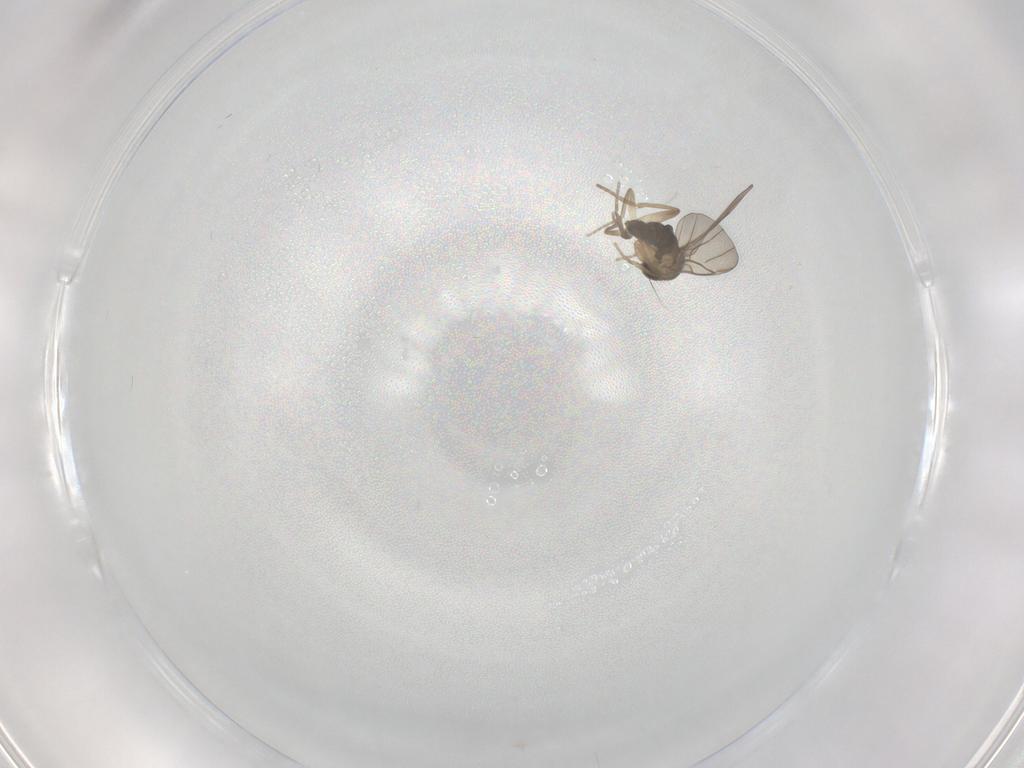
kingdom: Animalia
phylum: Arthropoda
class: Insecta
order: Diptera
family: Phoridae
